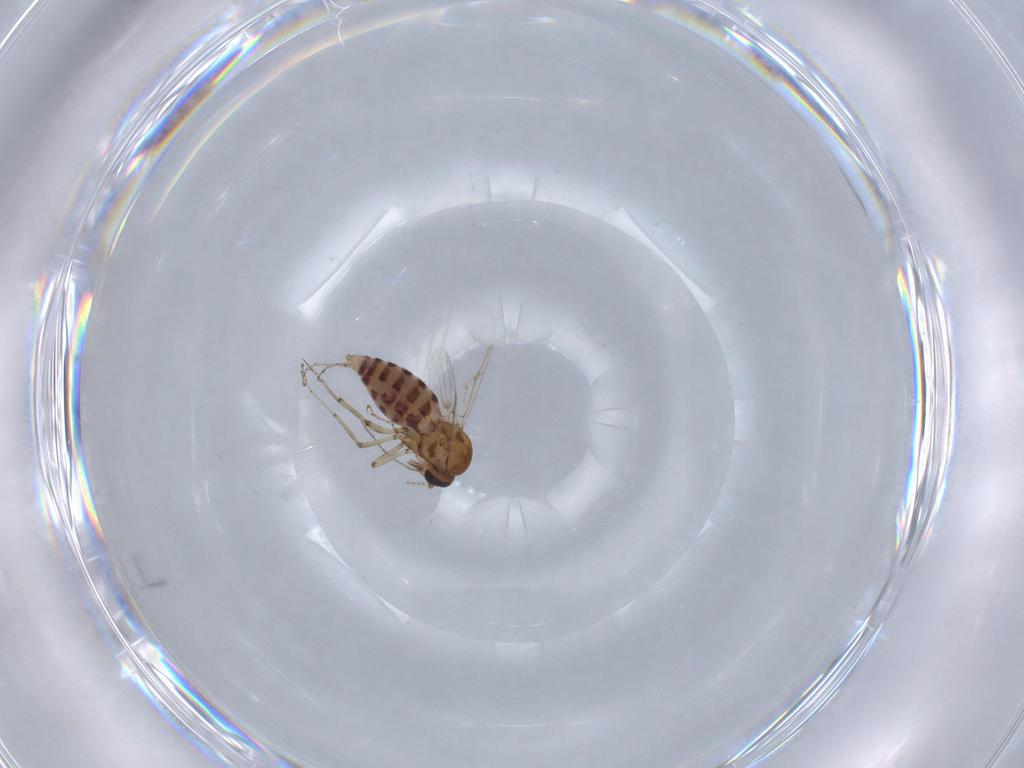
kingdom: Animalia
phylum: Arthropoda
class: Insecta
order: Diptera
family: Ceratopogonidae
